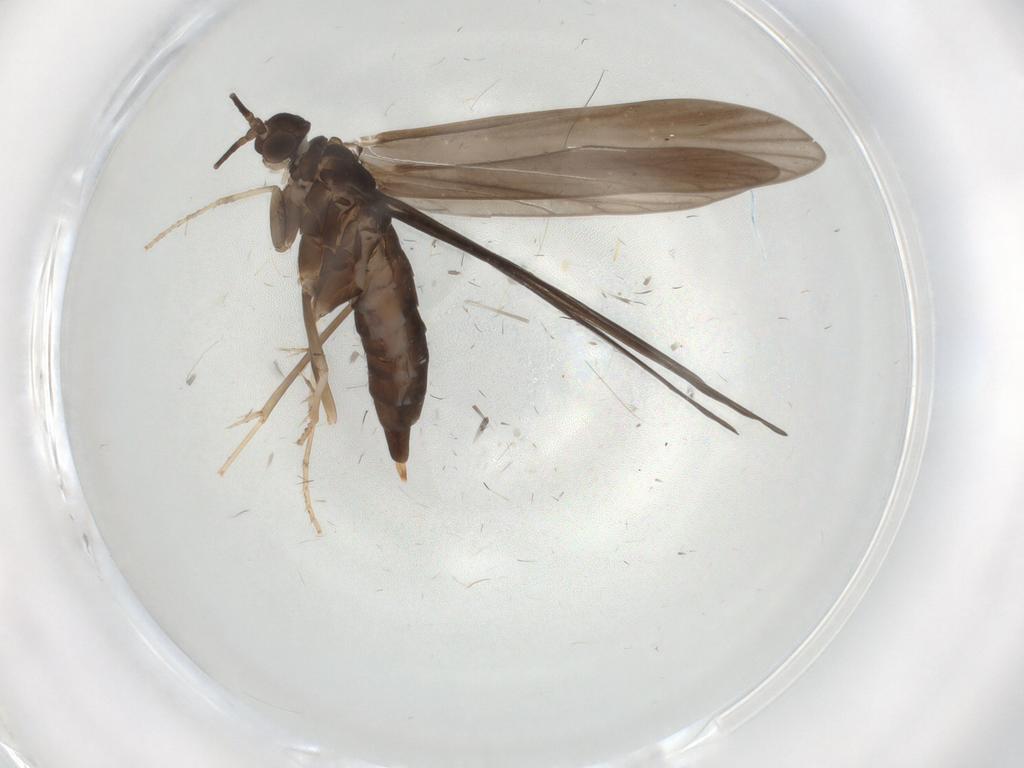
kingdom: Animalia
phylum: Arthropoda
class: Insecta
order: Trichoptera
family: Xiphocentronidae
